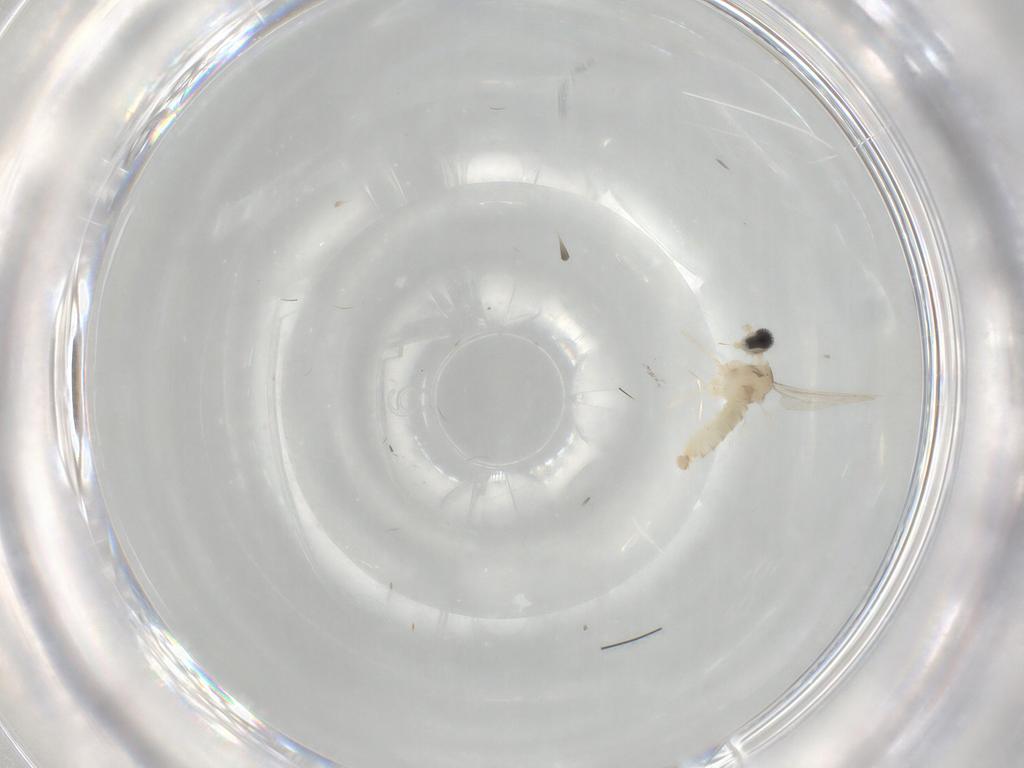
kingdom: Animalia
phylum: Arthropoda
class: Insecta
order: Diptera
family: Cecidomyiidae
